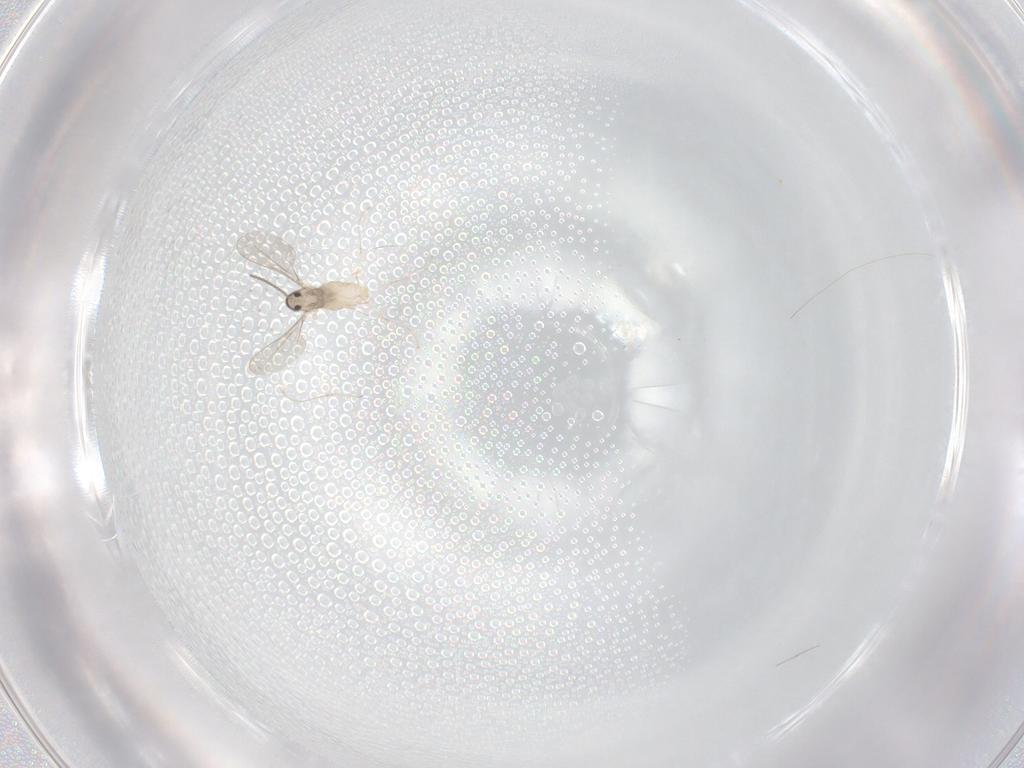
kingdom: Animalia
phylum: Arthropoda
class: Insecta
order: Diptera
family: Cecidomyiidae
